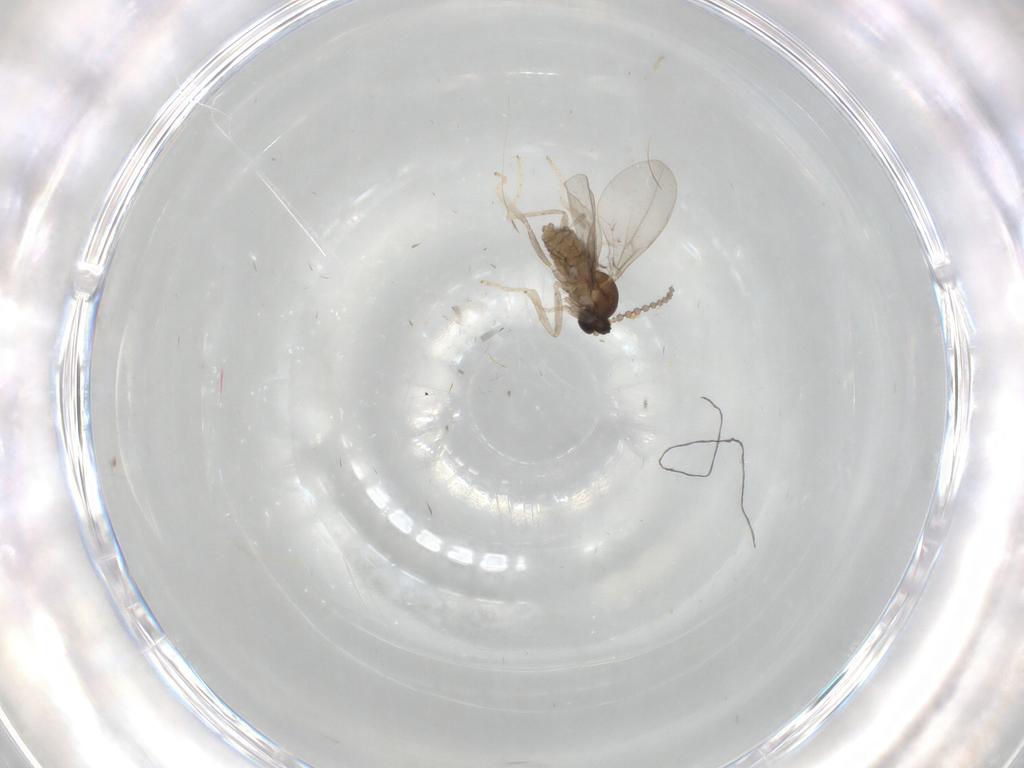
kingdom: Animalia
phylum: Arthropoda
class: Insecta
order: Diptera
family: Cecidomyiidae
